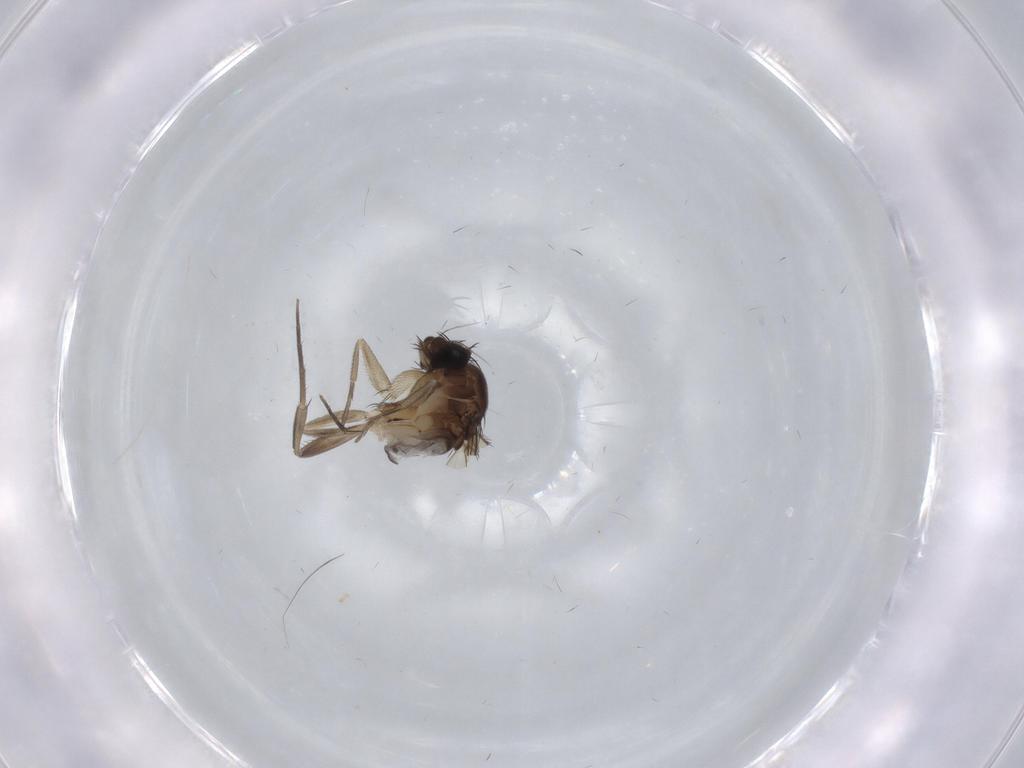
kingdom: Animalia
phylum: Arthropoda
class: Insecta
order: Diptera
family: Phoridae
